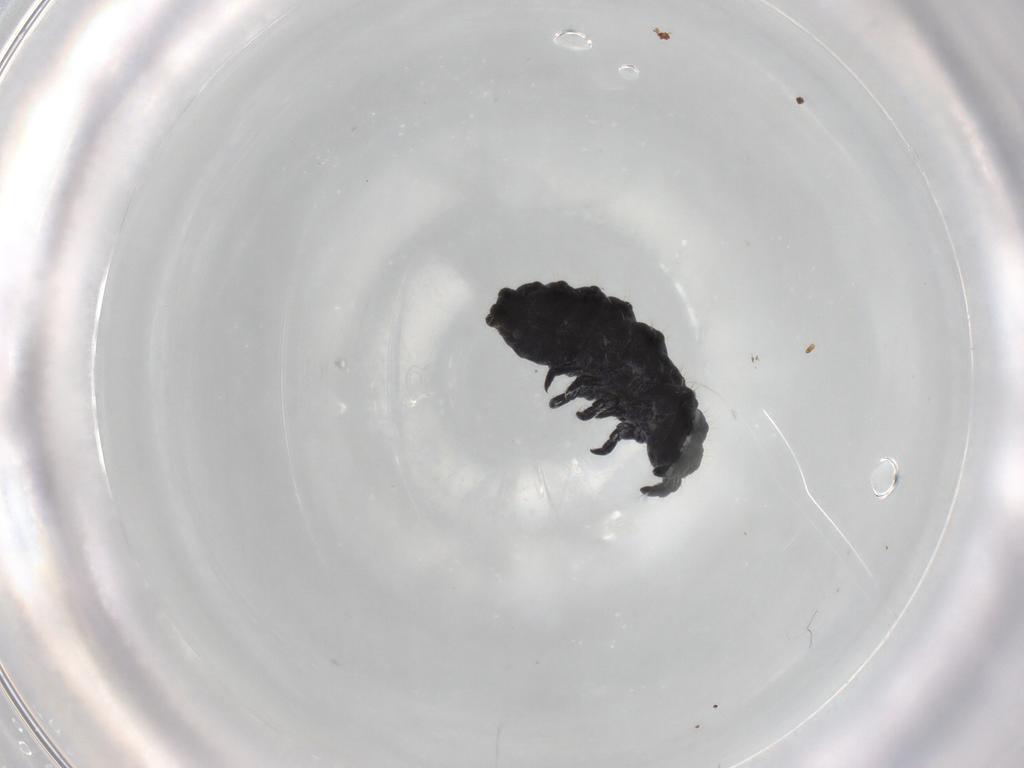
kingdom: Animalia
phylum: Arthropoda
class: Collembola
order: Poduromorpha
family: Neanuridae
